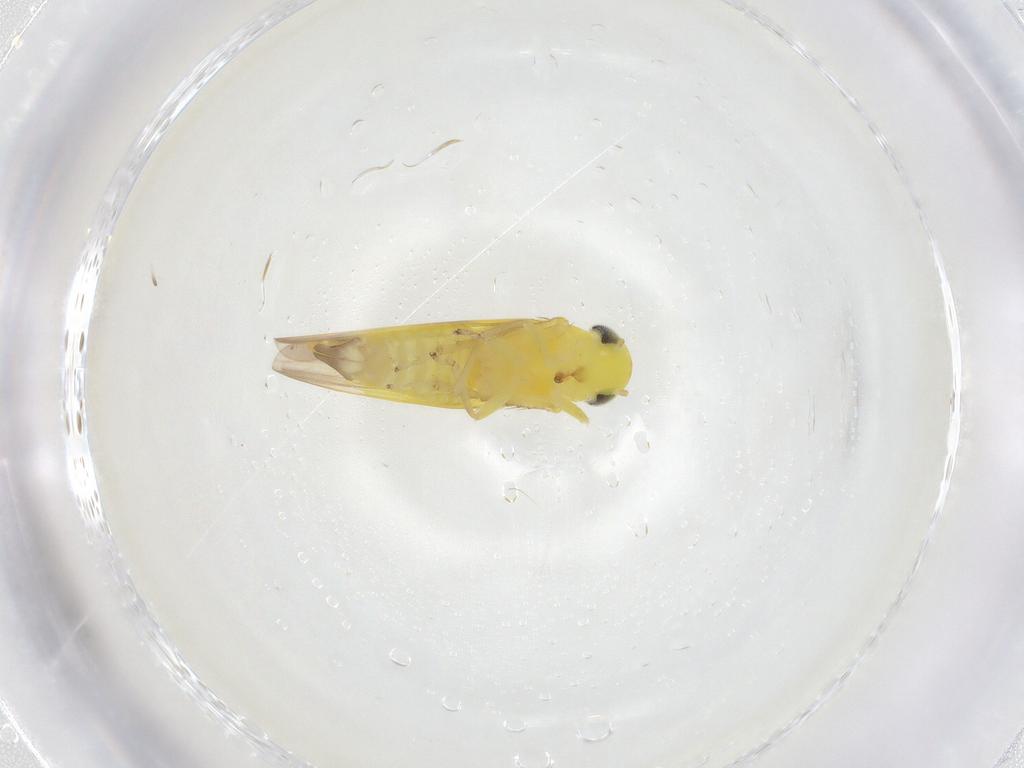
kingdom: Animalia
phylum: Arthropoda
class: Insecta
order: Hemiptera
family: Cicadellidae
